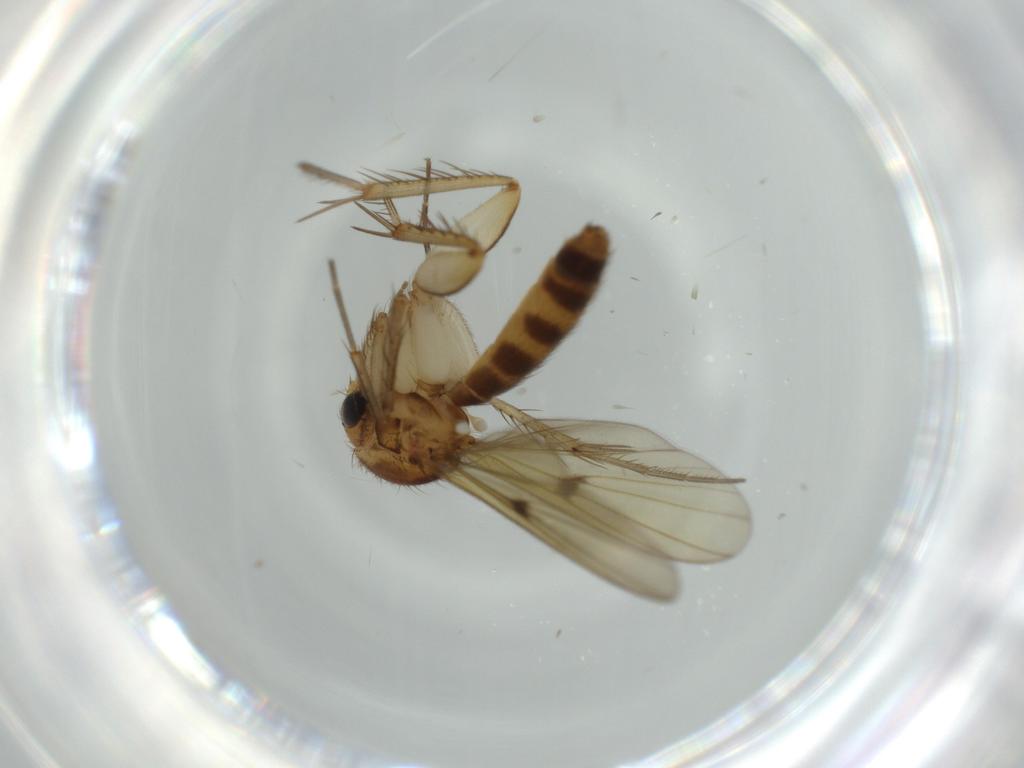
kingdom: Animalia
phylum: Arthropoda
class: Insecta
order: Diptera
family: Cecidomyiidae
